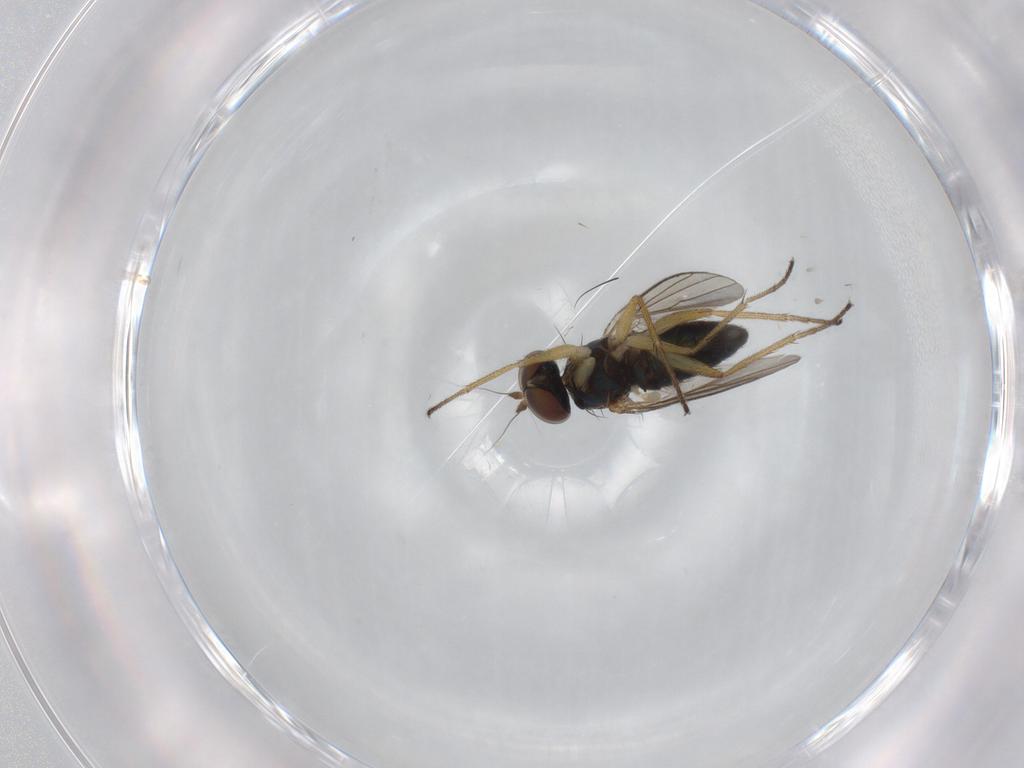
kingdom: Animalia
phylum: Arthropoda
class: Insecta
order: Diptera
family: Dolichopodidae
